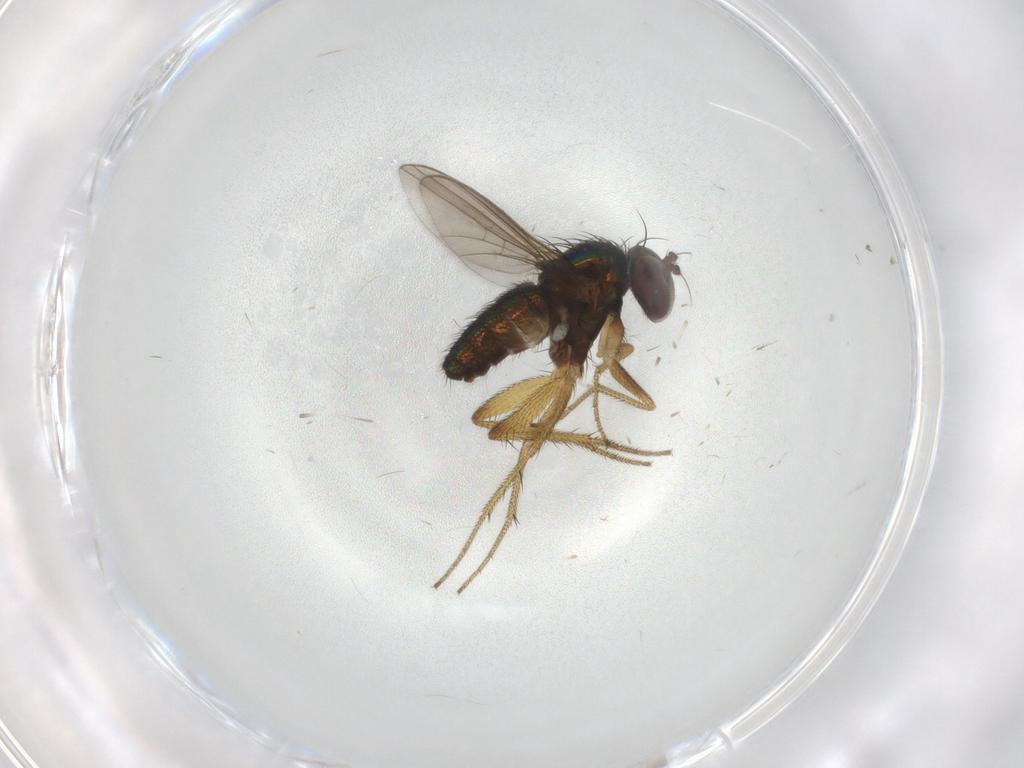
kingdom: Animalia
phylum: Arthropoda
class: Insecta
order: Diptera
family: Dolichopodidae
